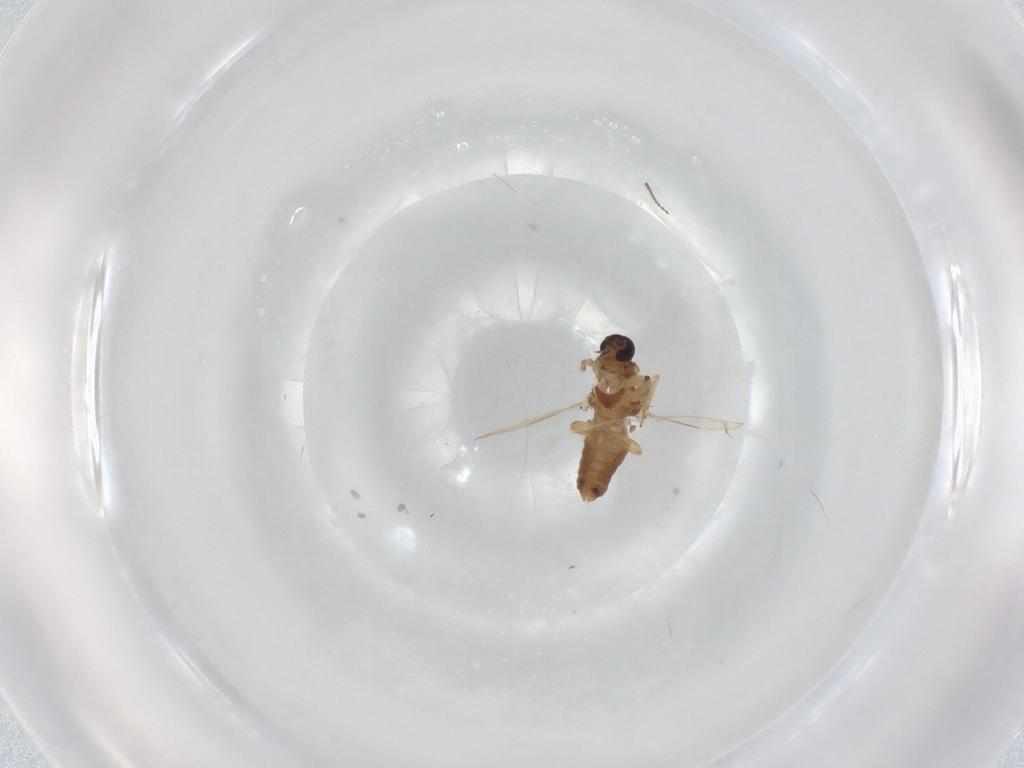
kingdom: Animalia
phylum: Arthropoda
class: Insecta
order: Diptera
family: Ceratopogonidae
